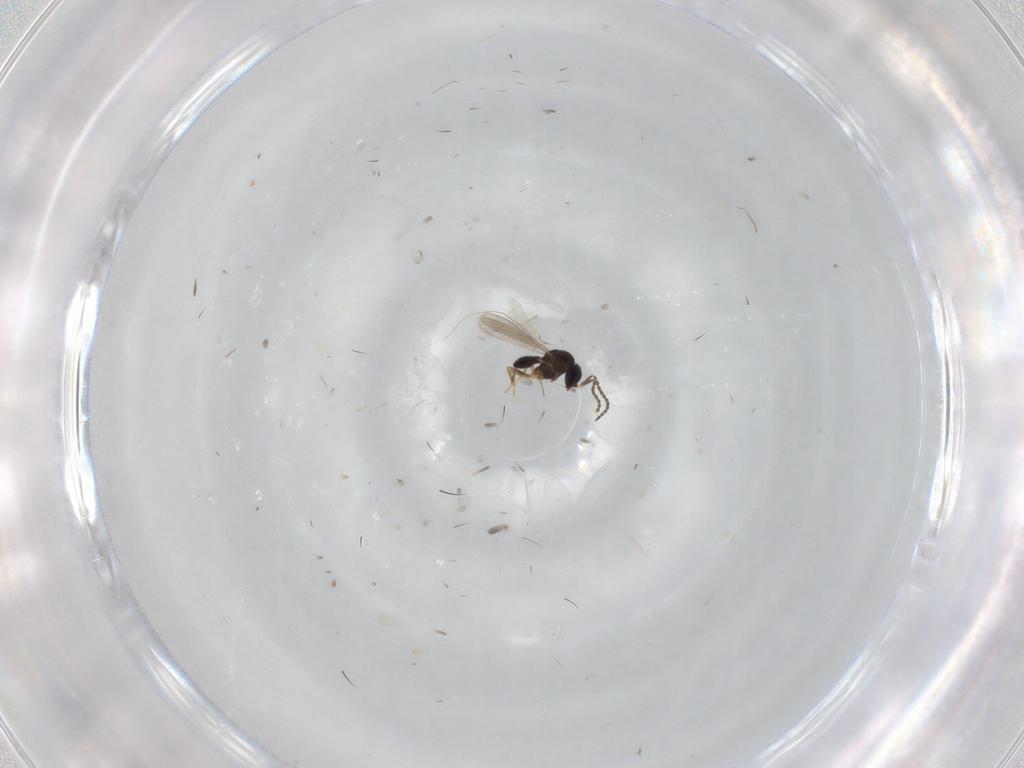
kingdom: Animalia
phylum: Arthropoda
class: Insecta
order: Hymenoptera
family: Scelionidae
